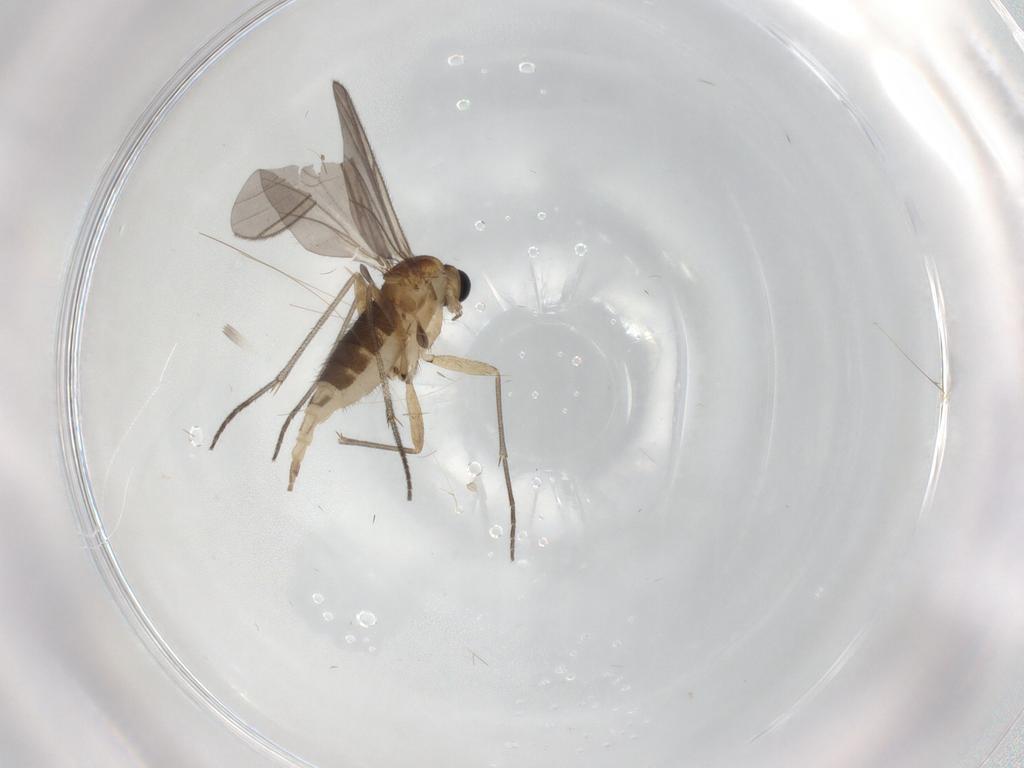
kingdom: Animalia
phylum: Arthropoda
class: Insecta
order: Diptera
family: Sciaridae
